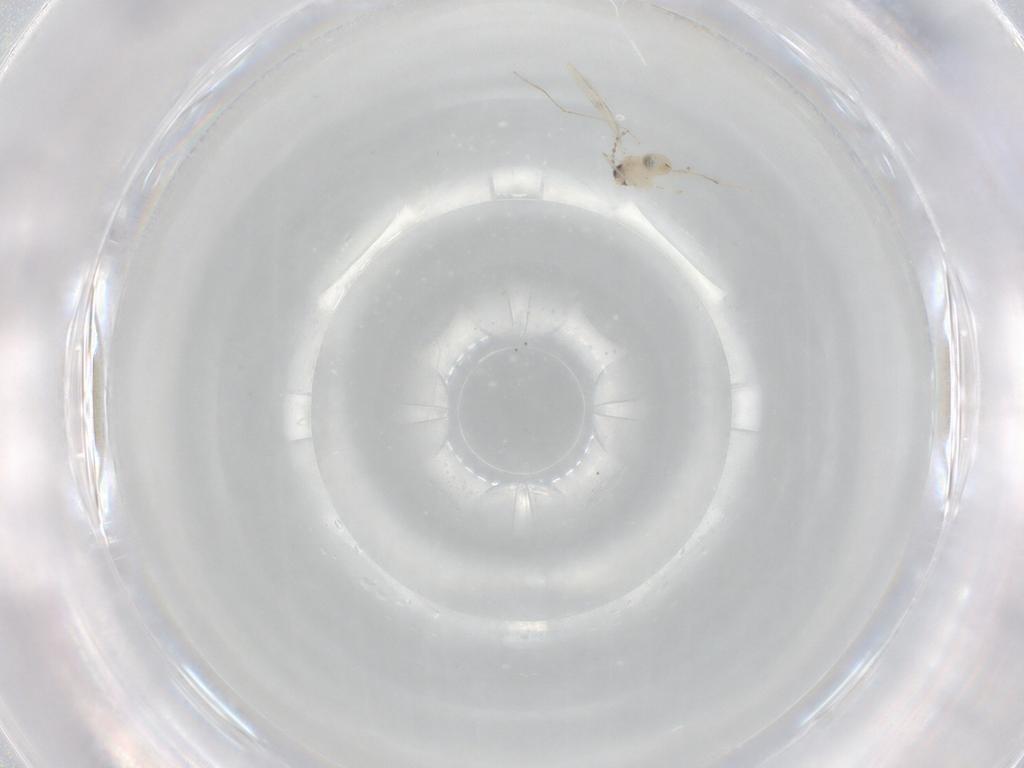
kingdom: Animalia
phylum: Arthropoda
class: Insecta
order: Diptera
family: Cecidomyiidae
